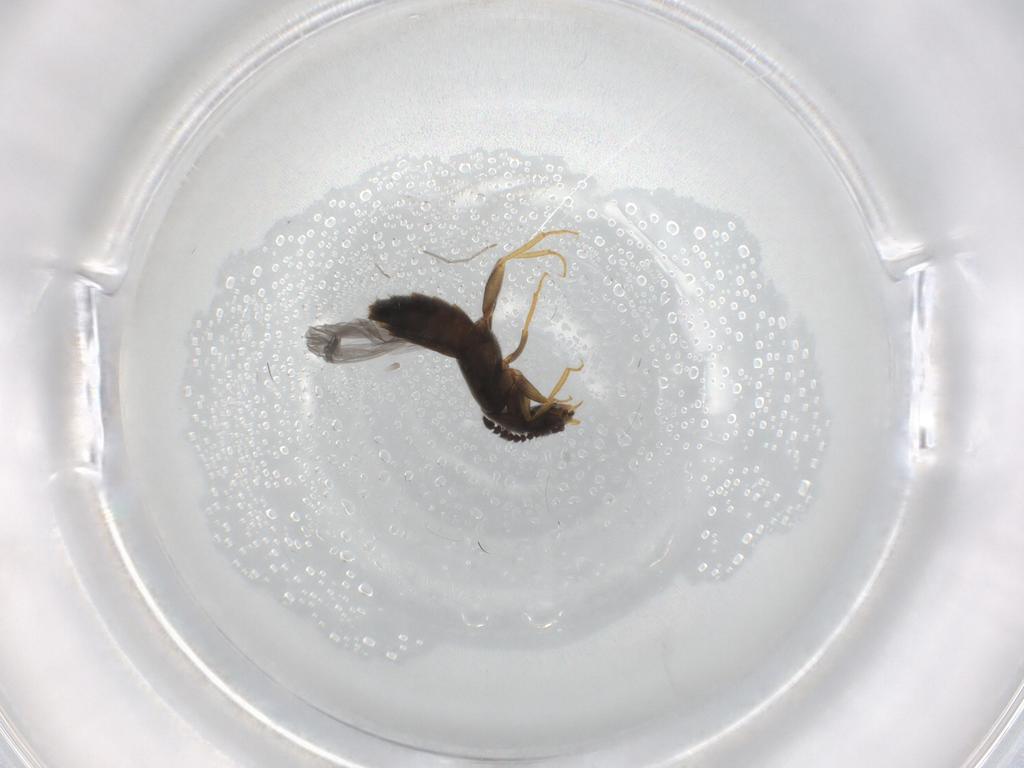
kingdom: Animalia
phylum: Arthropoda
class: Insecta
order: Coleoptera
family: Staphylinidae
